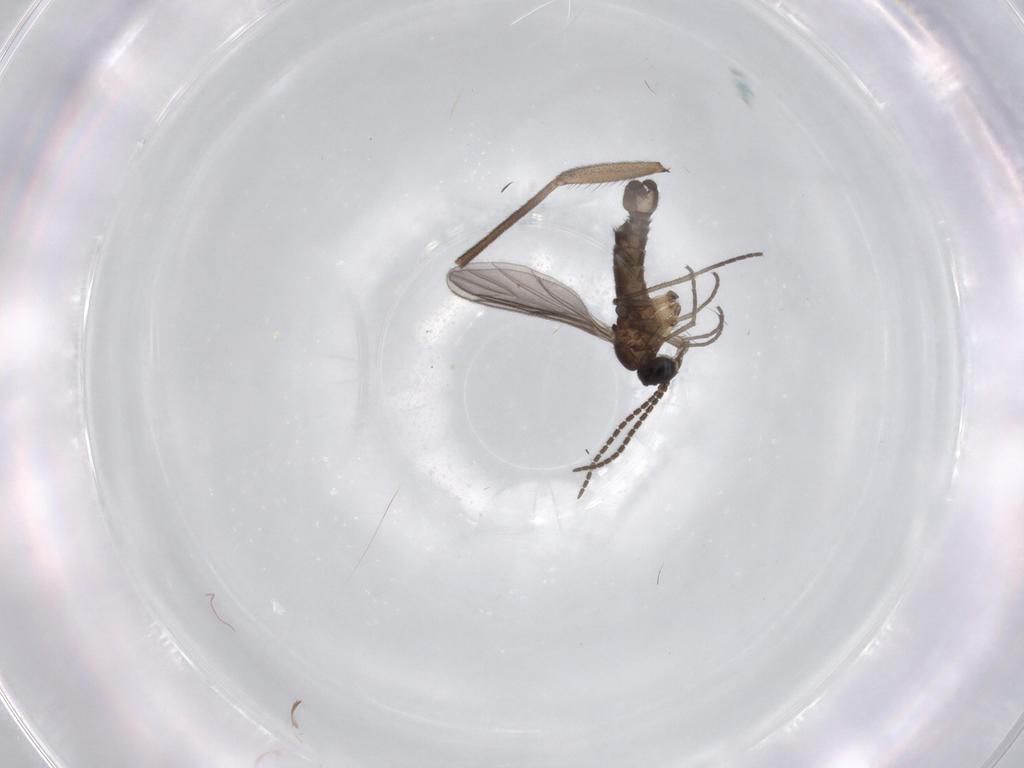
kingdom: Animalia
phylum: Arthropoda
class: Insecta
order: Diptera
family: Sciaridae
